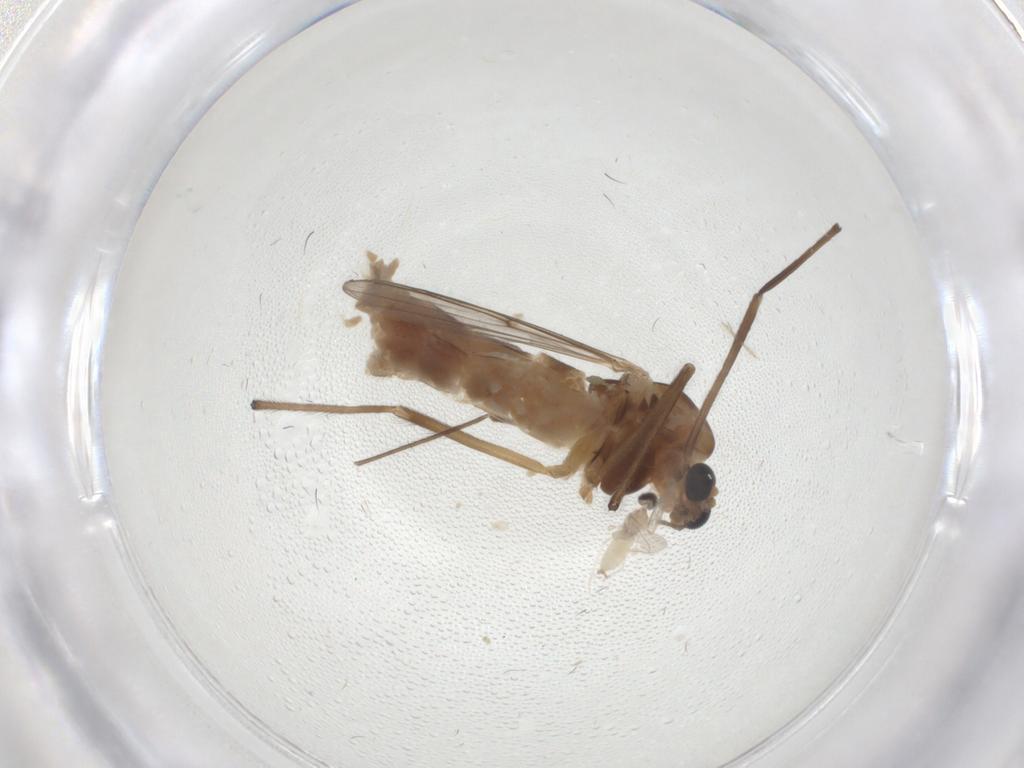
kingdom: Animalia
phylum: Arthropoda
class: Insecta
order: Diptera
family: Chironomidae
